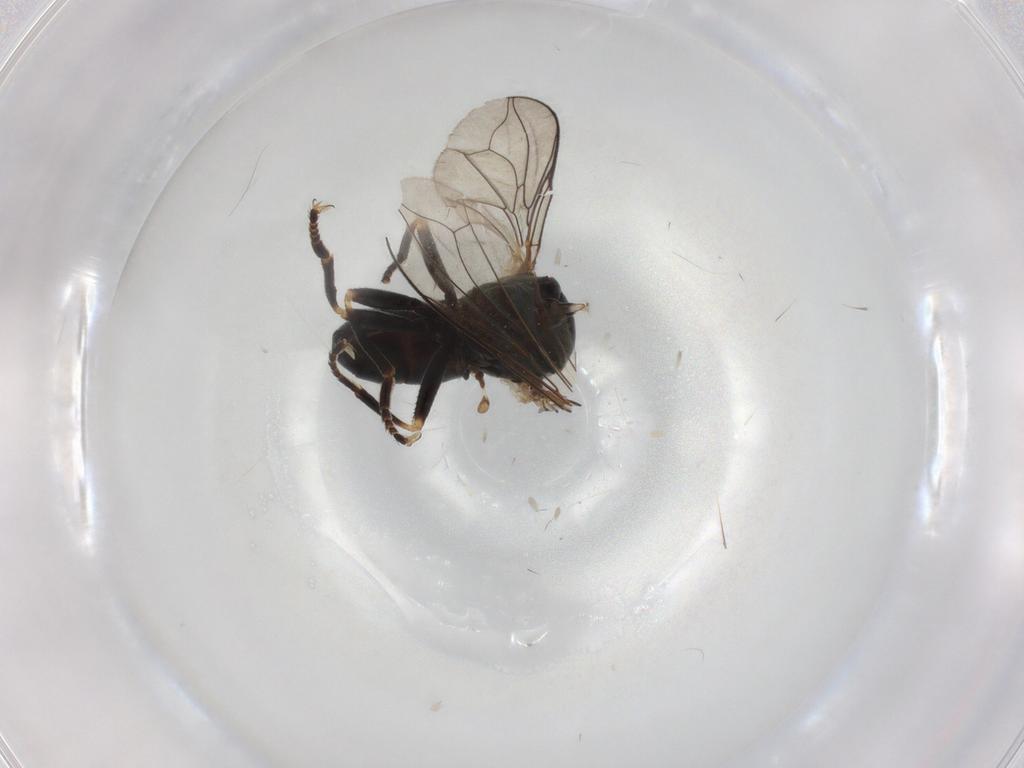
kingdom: Animalia
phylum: Arthropoda
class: Insecta
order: Diptera
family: Pipunculidae
